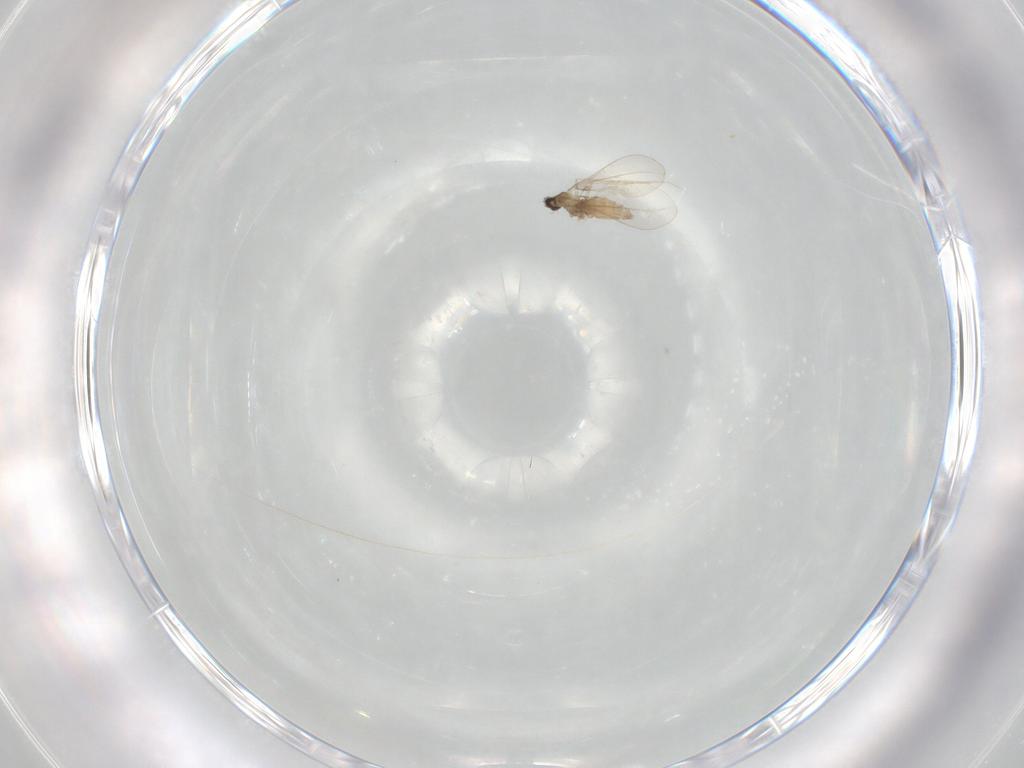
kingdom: Animalia
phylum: Arthropoda
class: Insecta
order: Diptera
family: Cecidomyiidae
